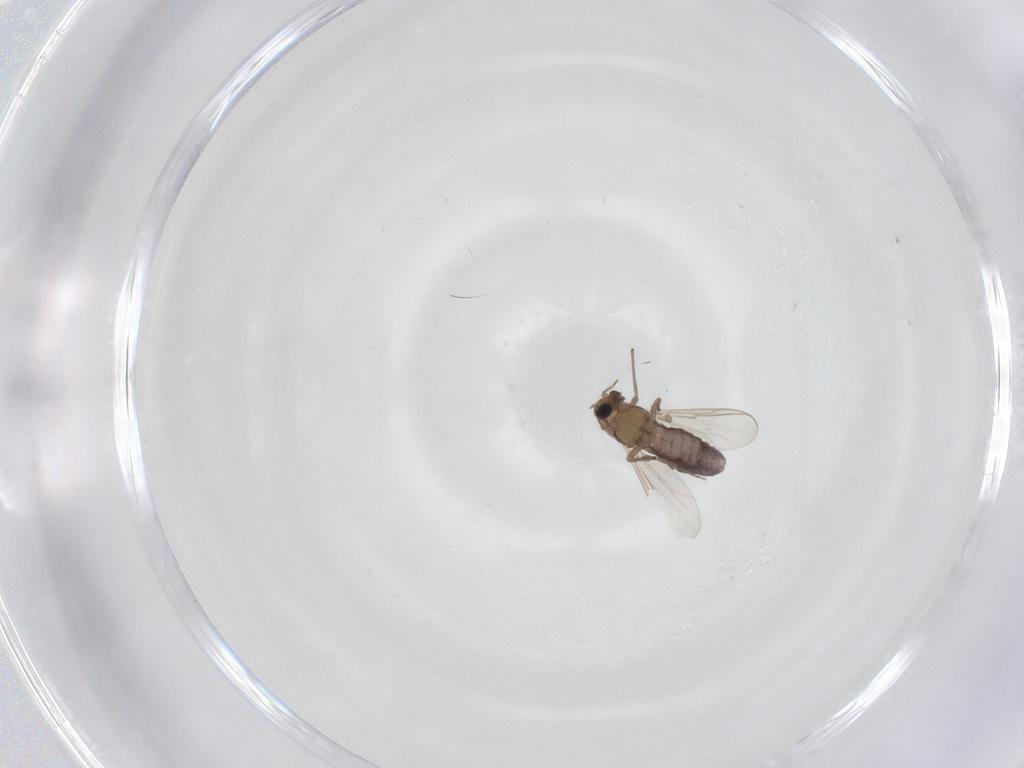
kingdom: Animalia
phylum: Arthropoda
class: Insecta
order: Diptera
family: Chironomidae
